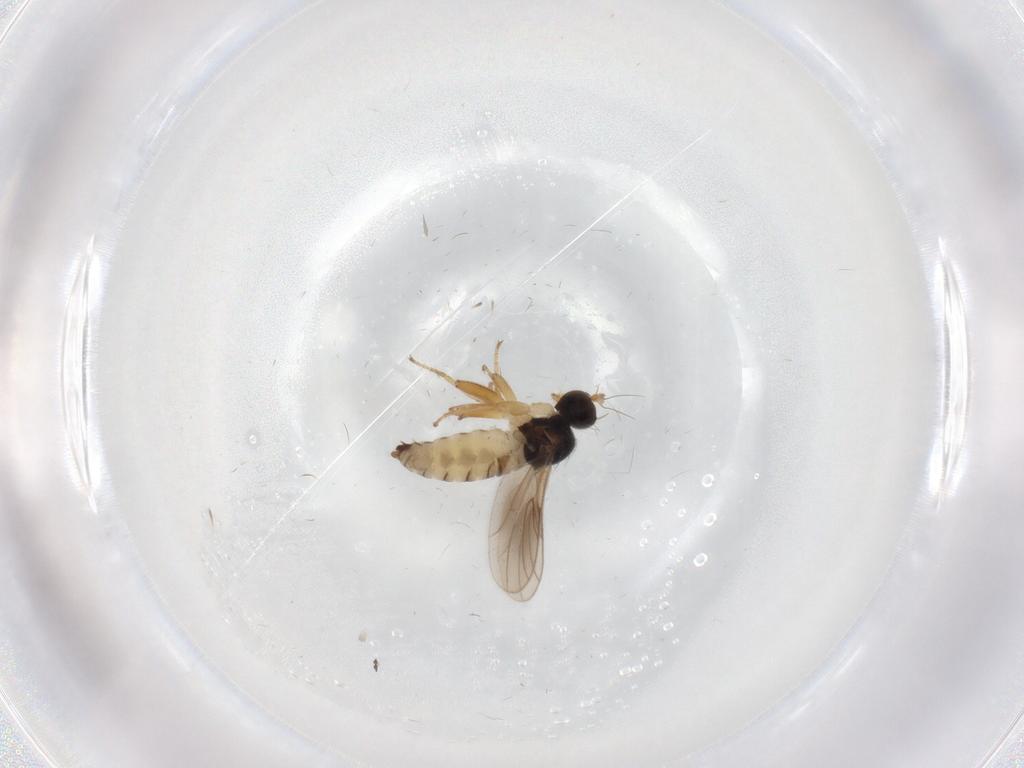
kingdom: Animalia
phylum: Arthropoda
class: Insecta
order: Diptera
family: Hybotidae
